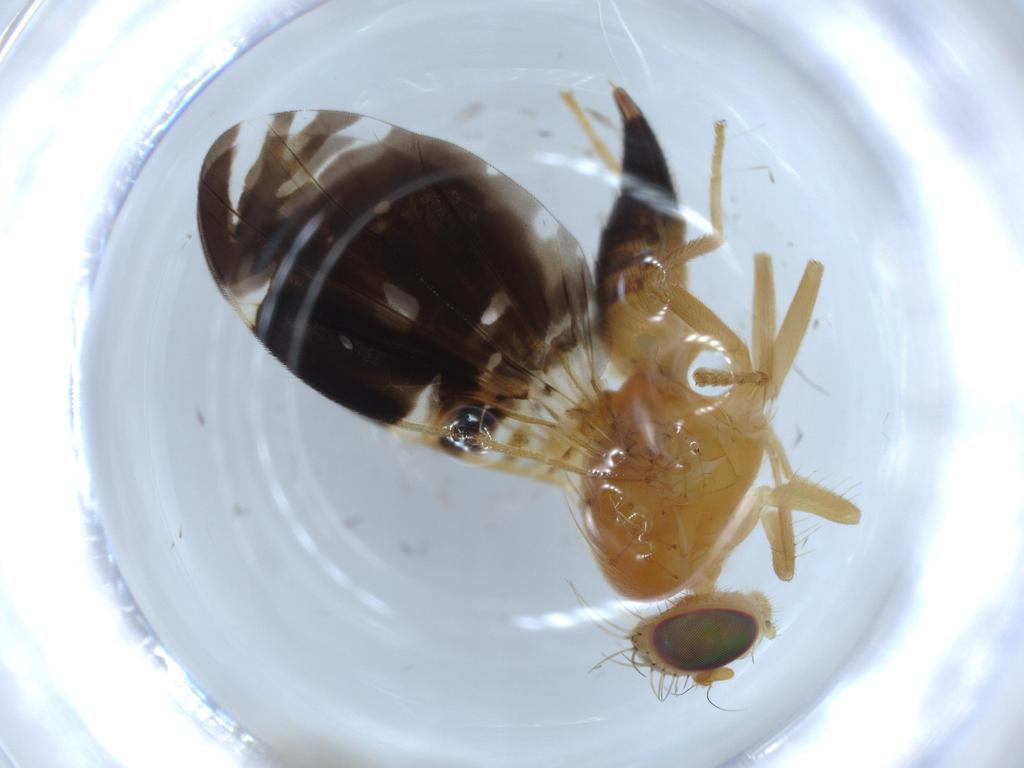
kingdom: Animalia
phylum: Arthropoda
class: Insecta
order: Diptera
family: Tephritidae
